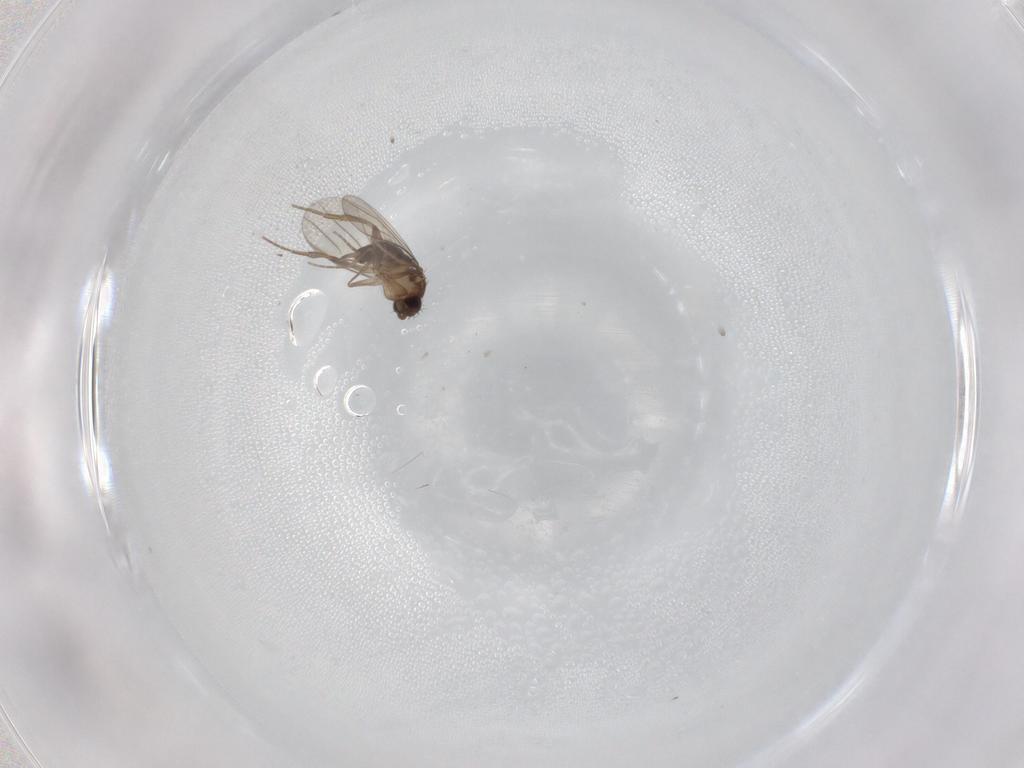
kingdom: Animalia
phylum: Arthropoda
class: Insecta
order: Diptera
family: Phoridae
